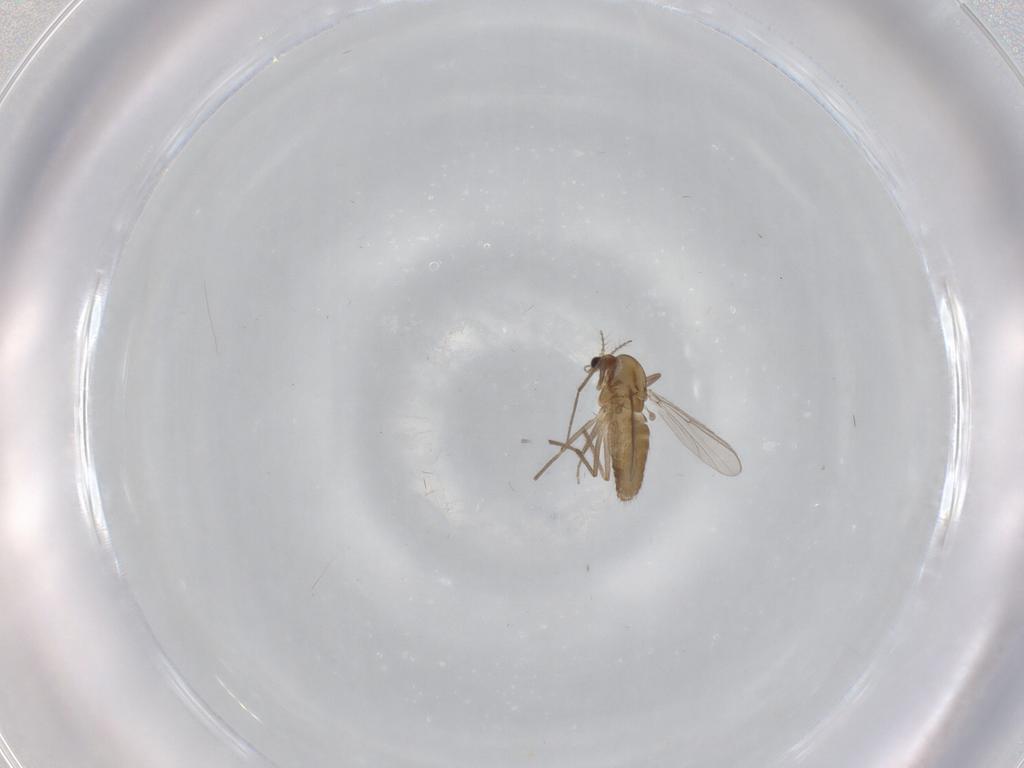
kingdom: Animalia
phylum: Arthropoda
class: Insecta
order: Diptera
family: Chironomidae
